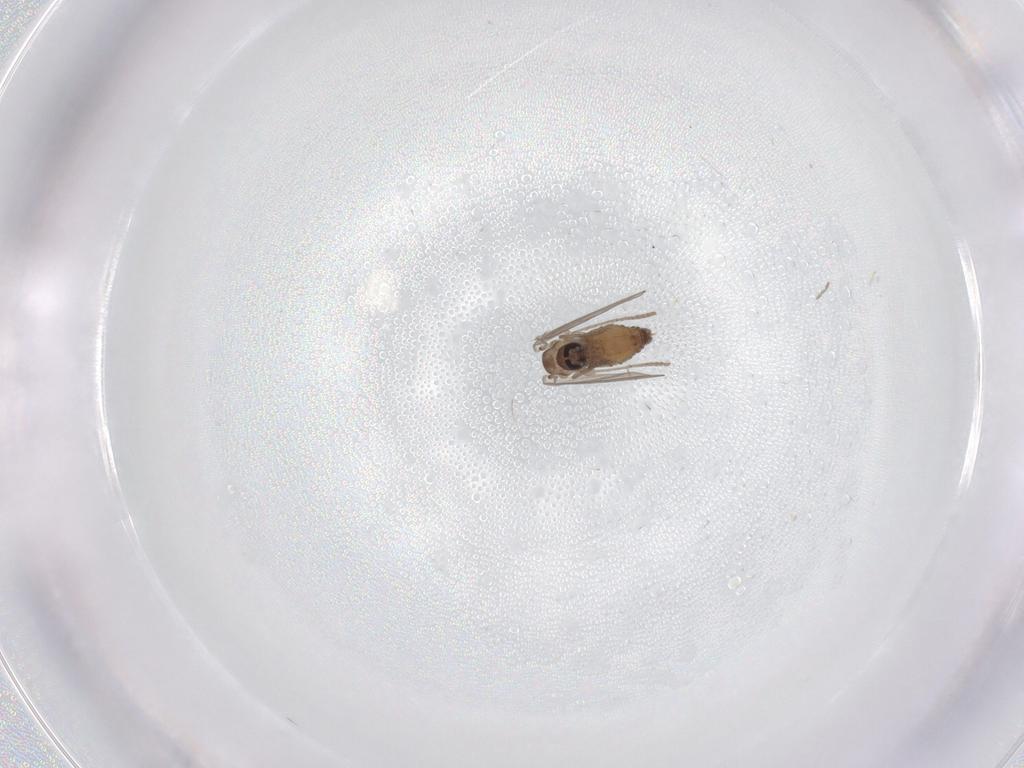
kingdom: Animalia
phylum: Arthropoda
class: Insecta
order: Diptera
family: Psychodidae
